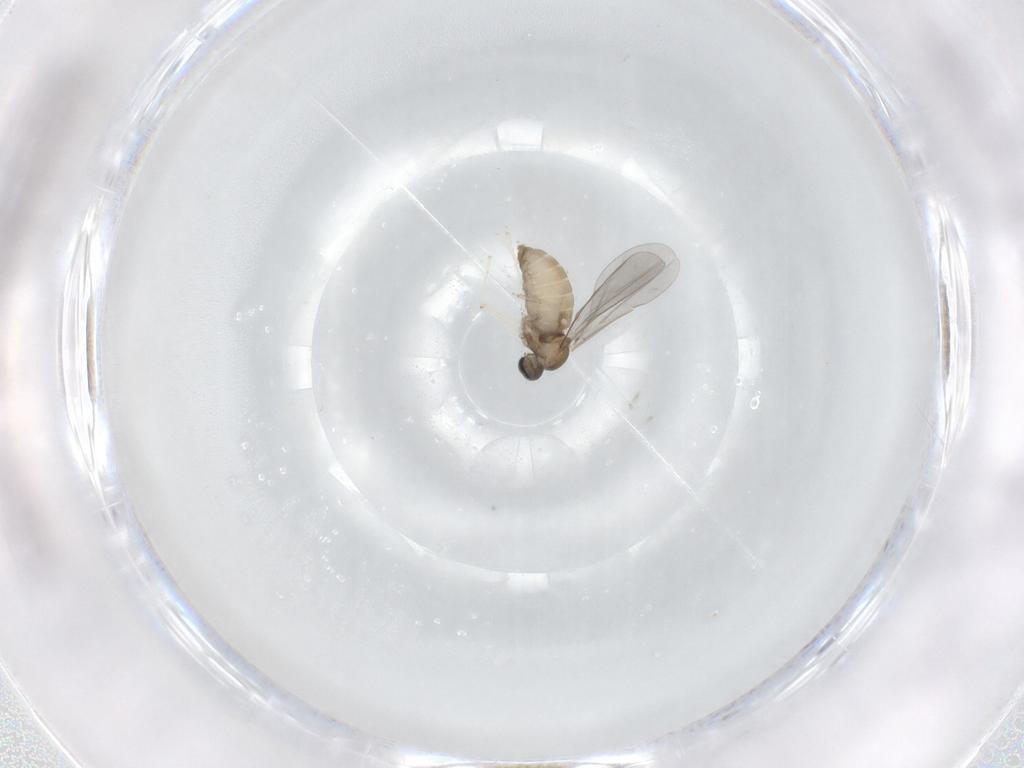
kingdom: Animalia
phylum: Arthropoda
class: Insecta
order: Diptera
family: Cecidomyiidae
